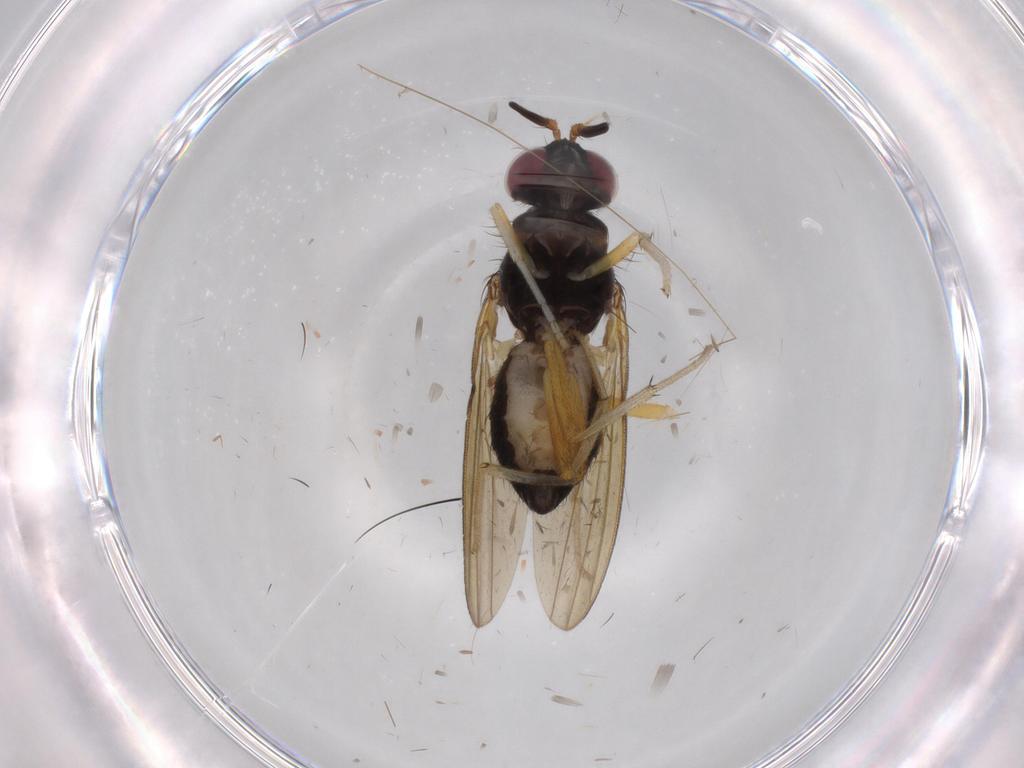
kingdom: Animalia
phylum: Arthropoda
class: Insecta
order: Diptera
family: Lauxaniidae
